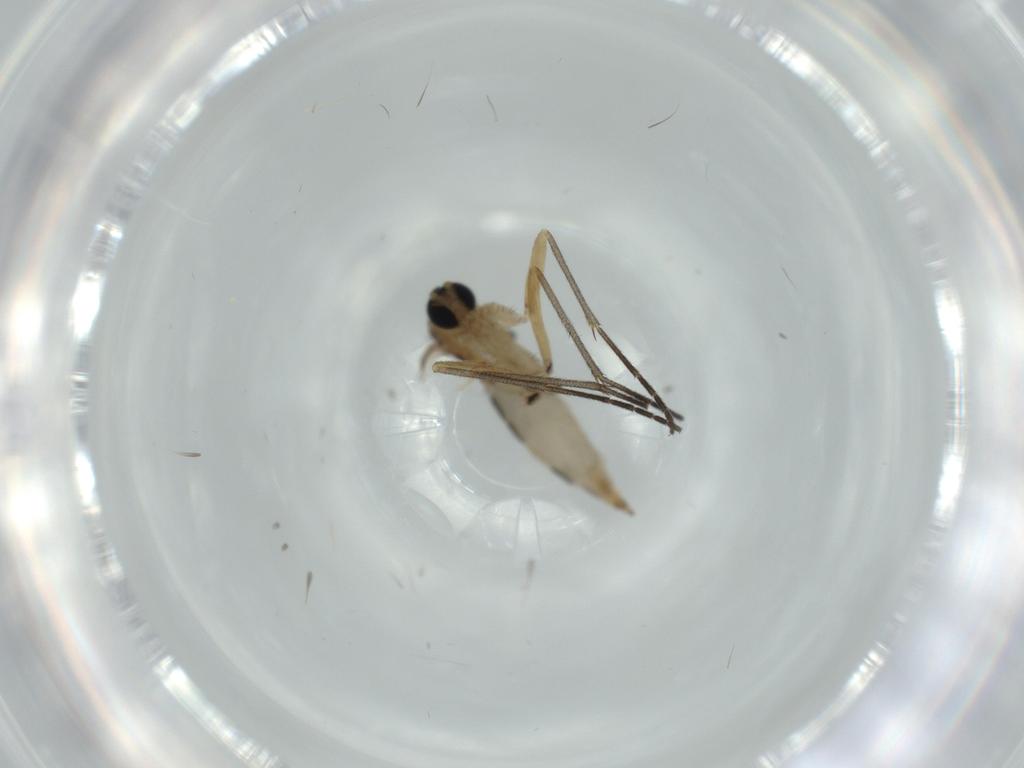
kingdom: Animalia
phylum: Arthropoda
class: Insecta
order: Diptera
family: Sciaridae
